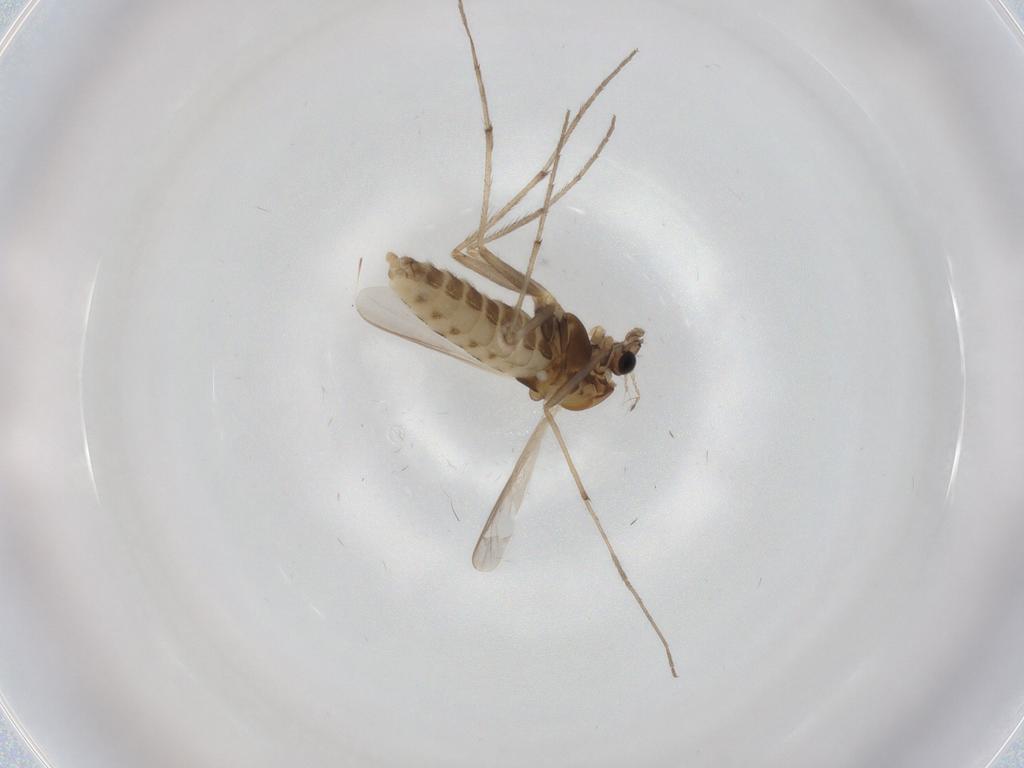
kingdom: Animalia
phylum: Arthropoda
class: Insecta
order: Diptera
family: Chironomidae
